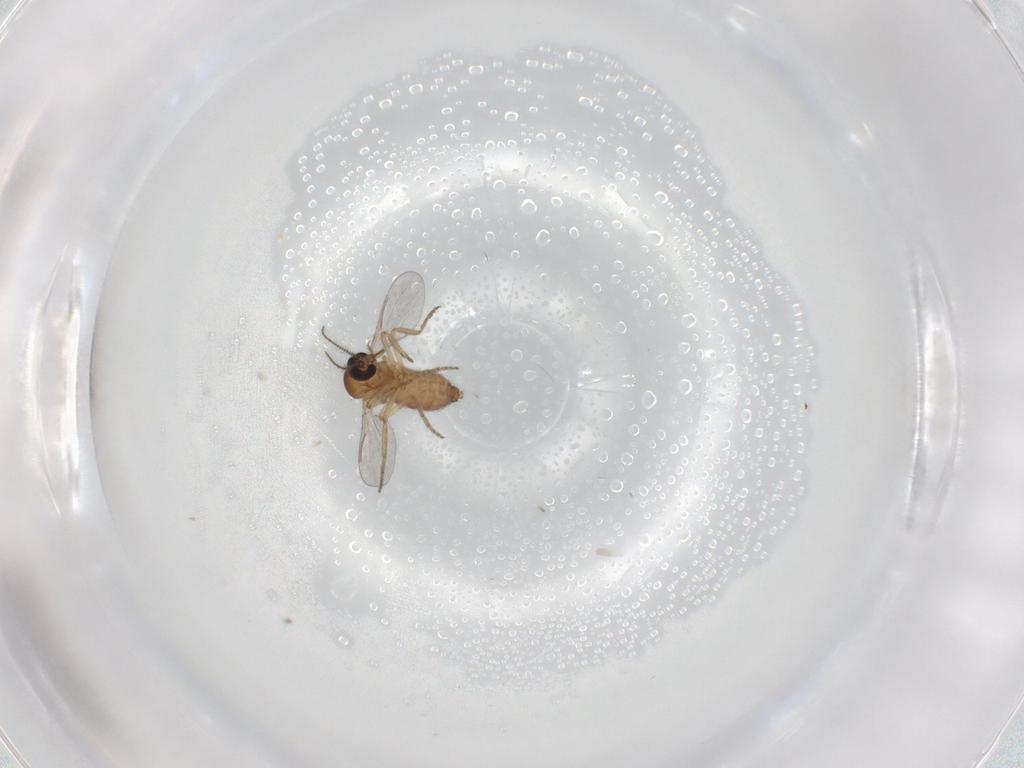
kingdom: Animalia
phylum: Arthropoda
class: Insecta
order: Diptera
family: Ceratopogonidae
